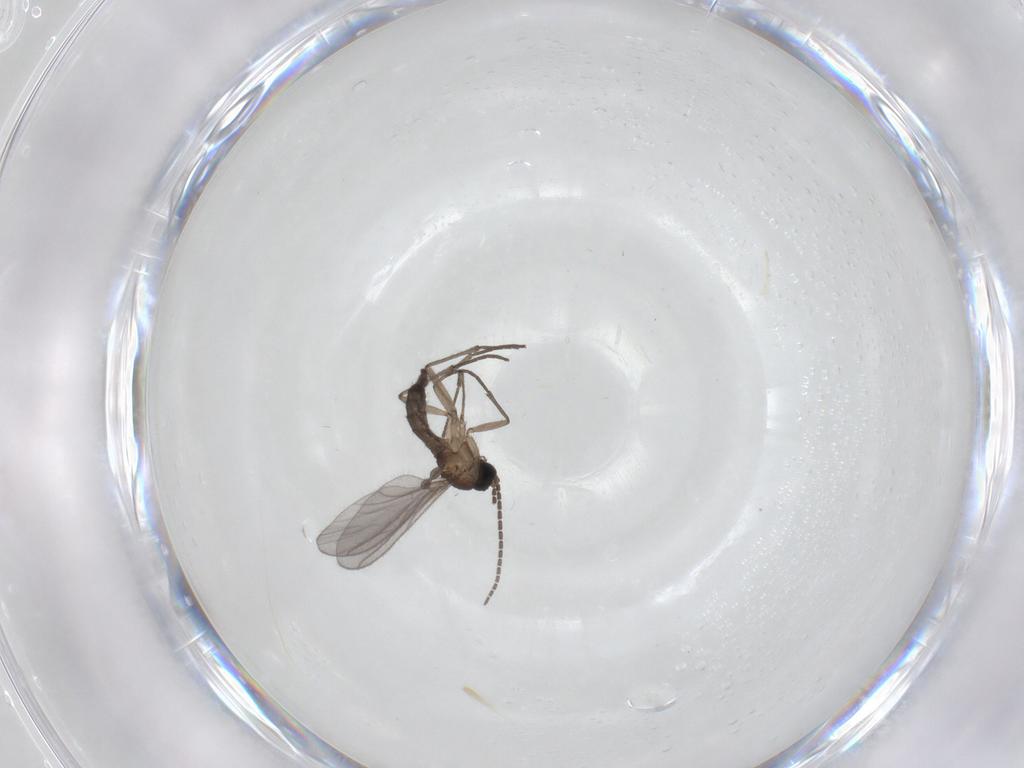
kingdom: Animalia
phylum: Arthropoda
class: Insecta
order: Diptera
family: Sciaridae
